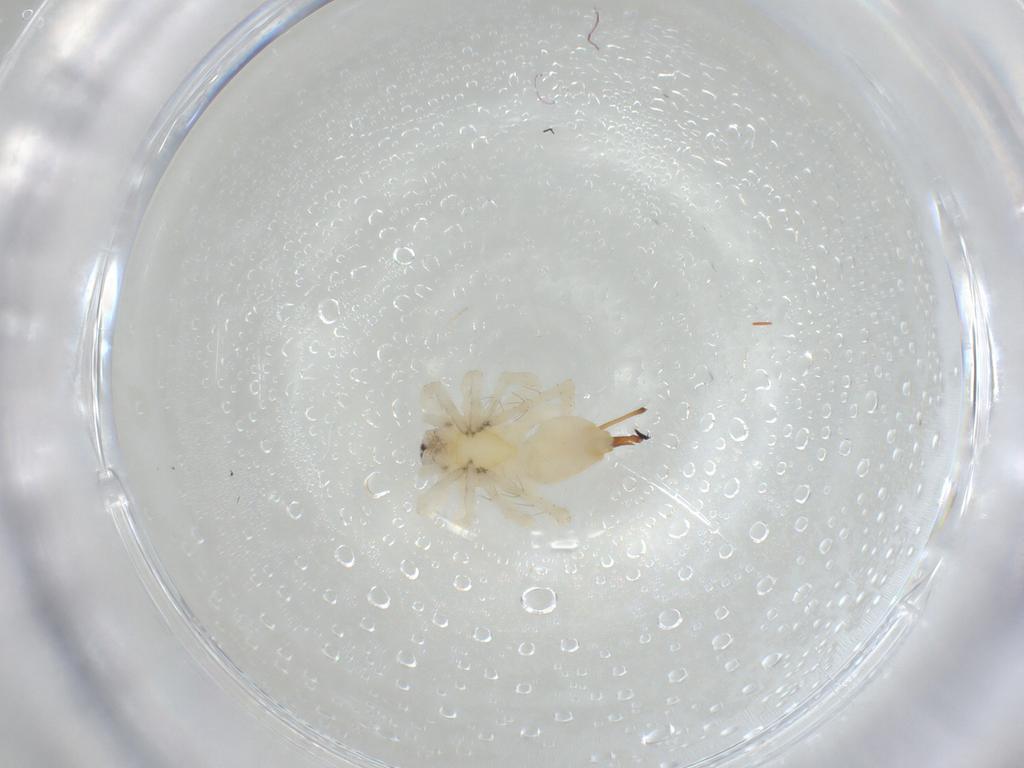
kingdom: Animalia
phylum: Arthropoda
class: Arachnida
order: Araneae
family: Clubionidae
